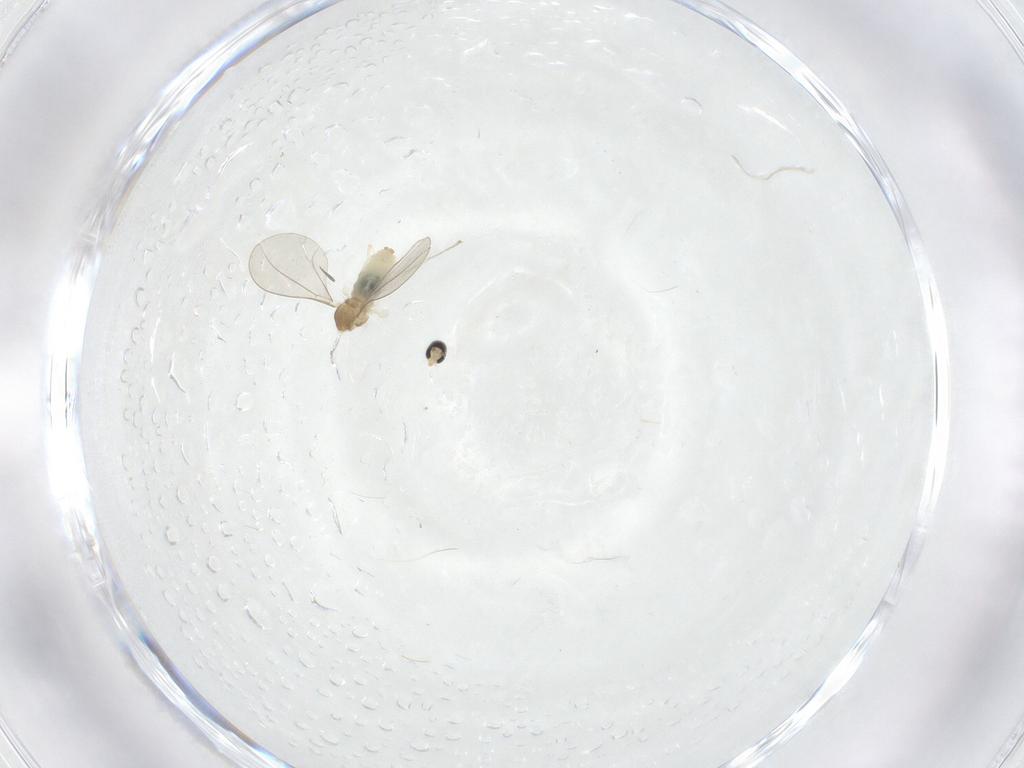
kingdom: Animalia
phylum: Arthropoda
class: Insecta
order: Diptera
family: Cecidomyiidae
